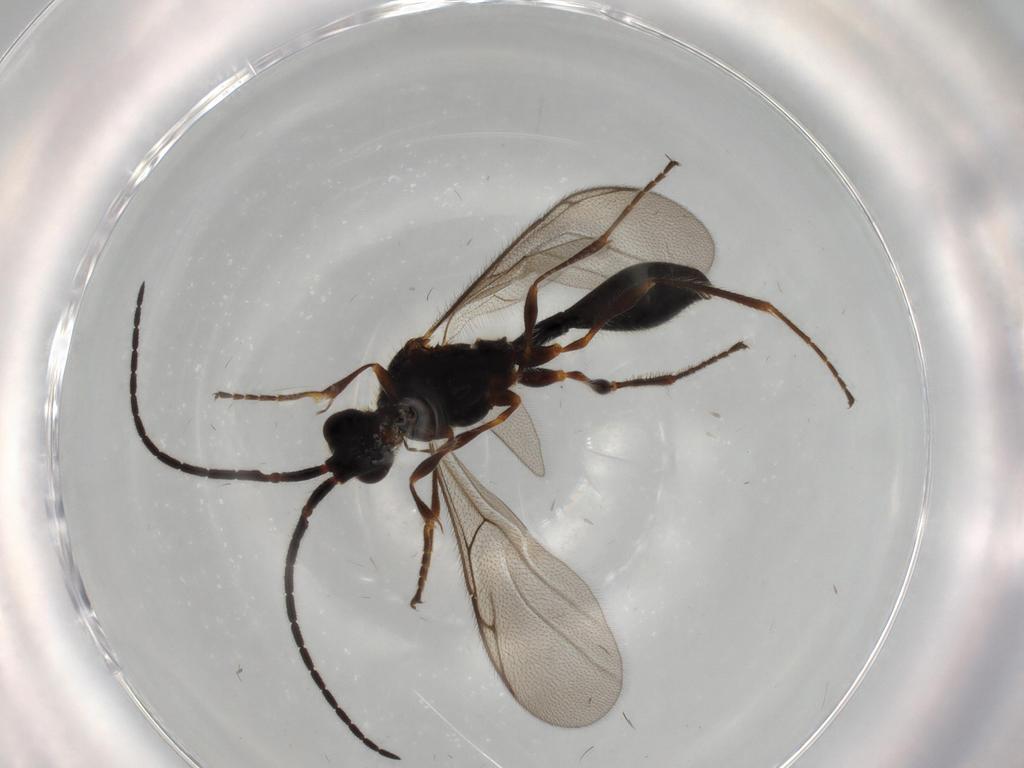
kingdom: Animalia
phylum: Arthropoda
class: Insecta
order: Hymenoptera
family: Diapriidae
